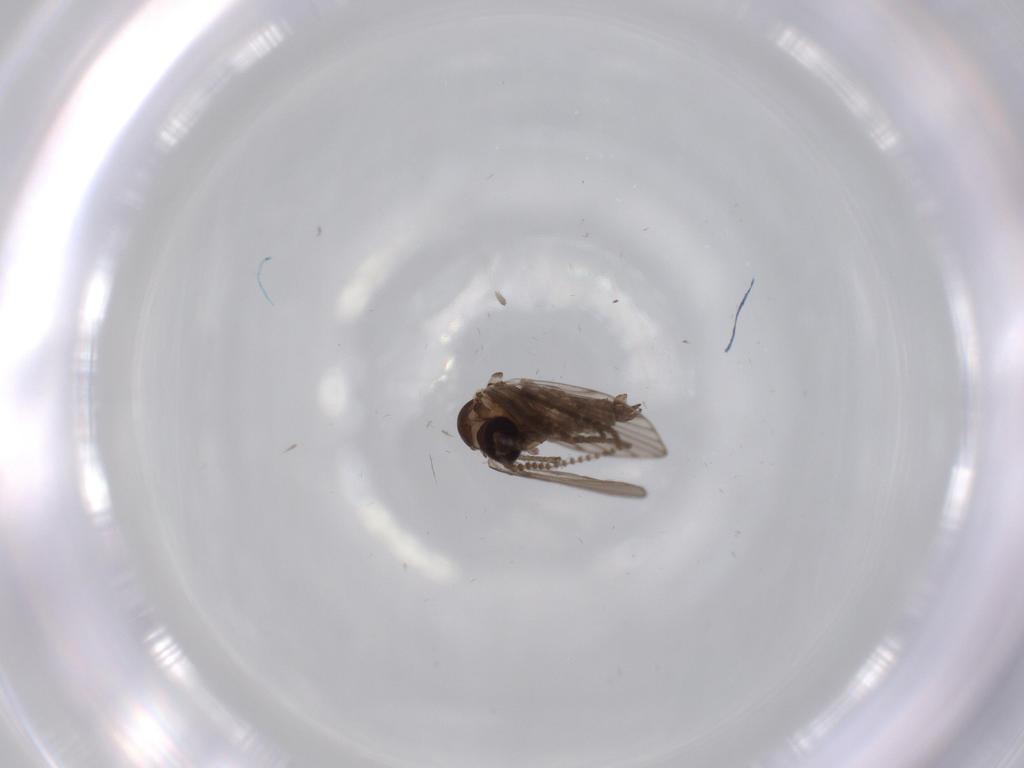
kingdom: Animalia
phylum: Arthropoda
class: Insecta
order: Diptera
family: Psychodidae
